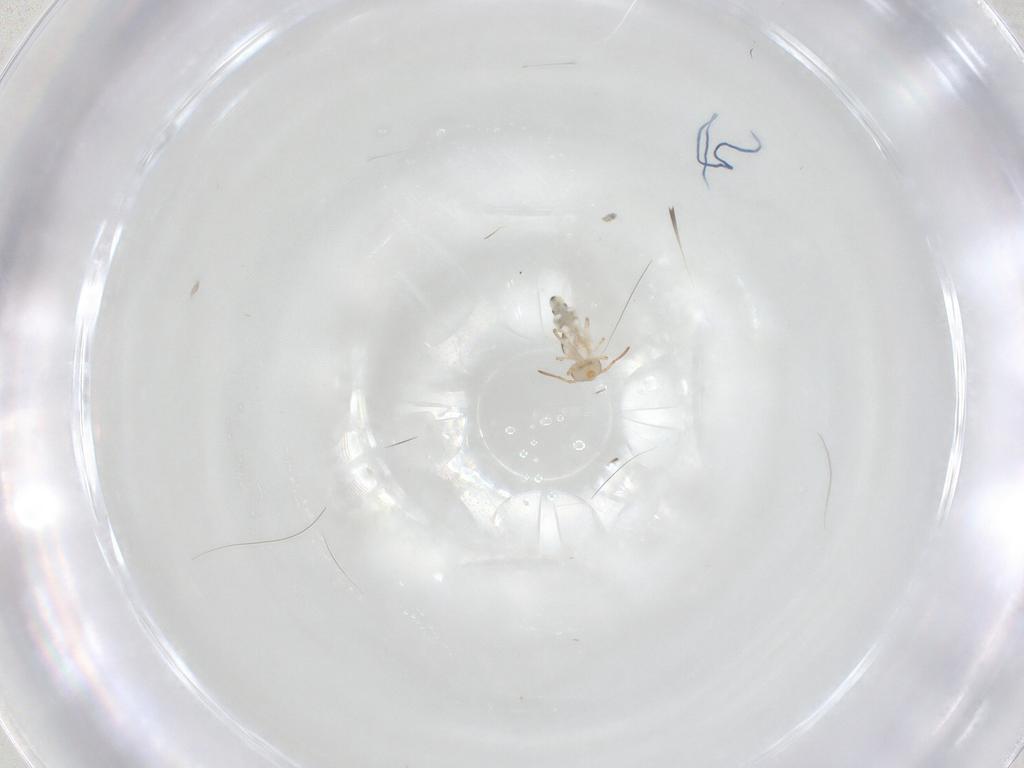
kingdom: Animalia
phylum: Arthropoda
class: Collembola
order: Symphypleona
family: Bourletiellidae
